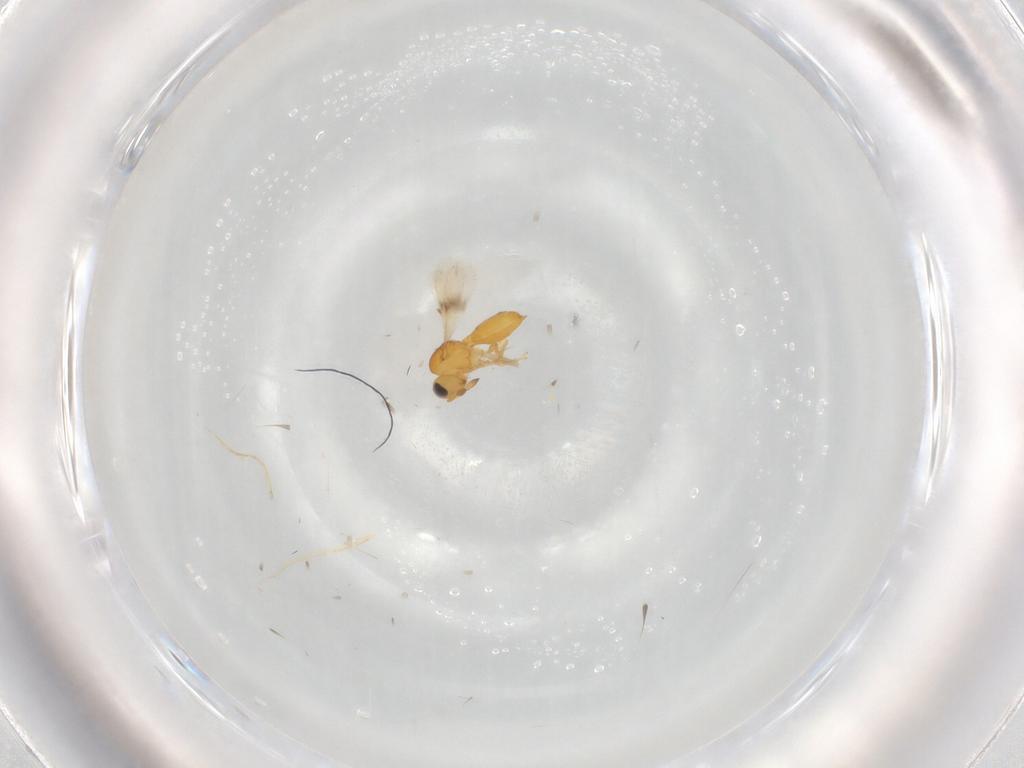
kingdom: Animalia
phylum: Arthropoda
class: Insecta
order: Hymenoptera
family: Scelionidae
